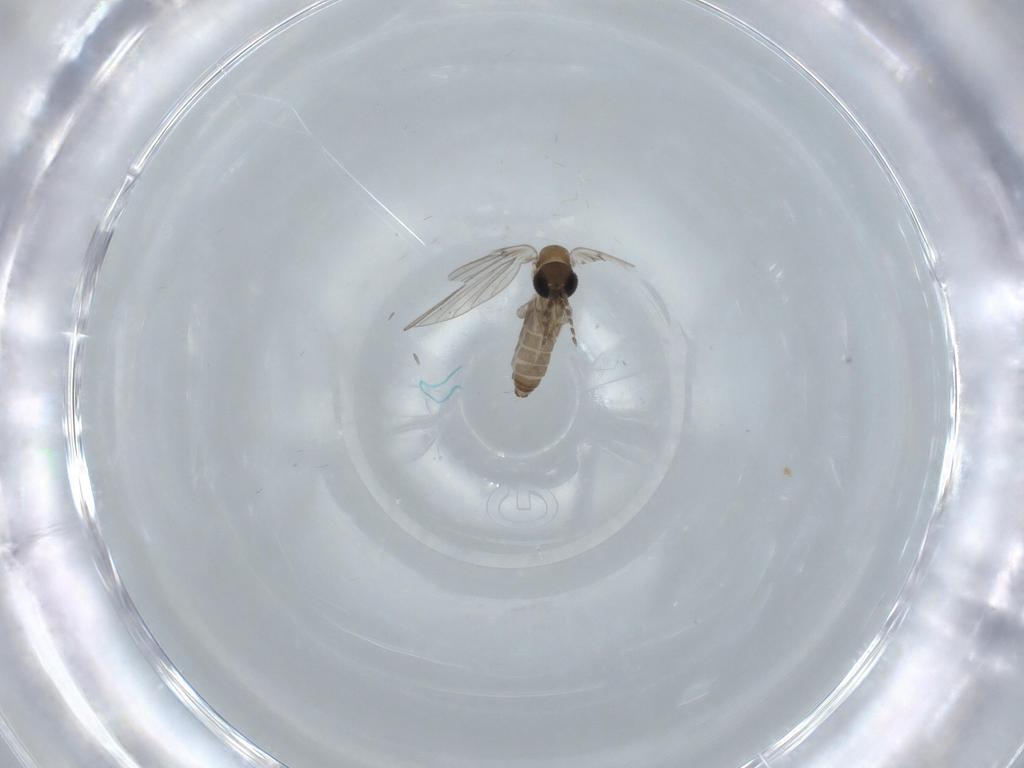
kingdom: Animalia
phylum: Arthropoda
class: Insecta
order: Diptera
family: Psychodidae
